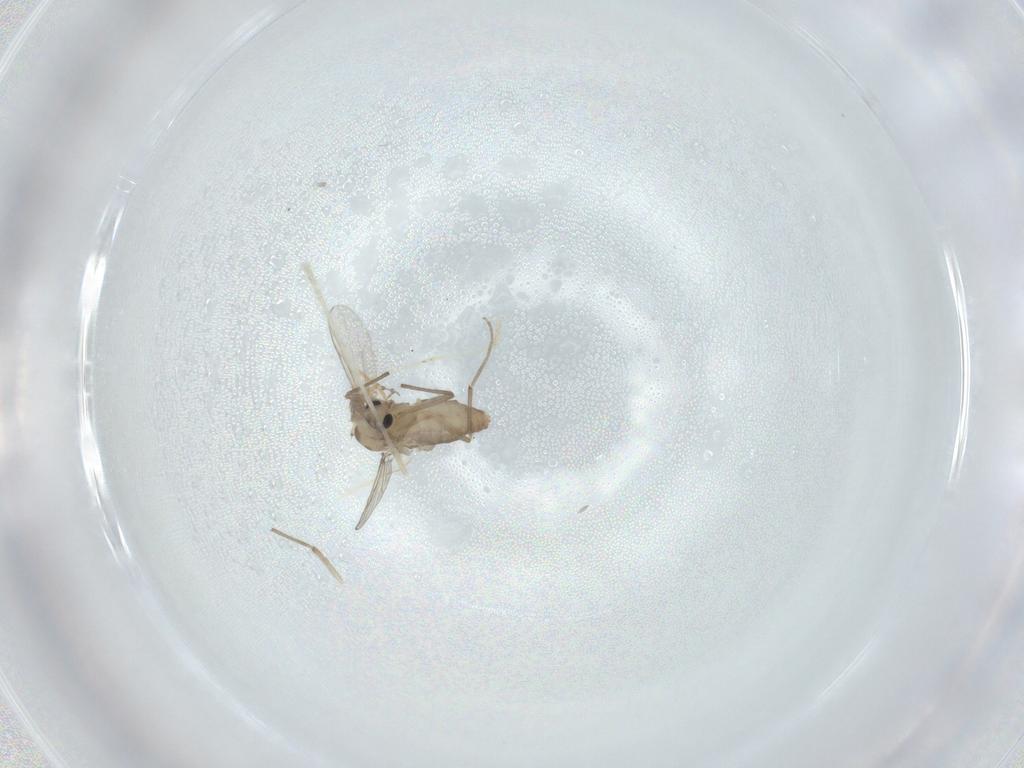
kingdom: Animalia
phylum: Arthropoda
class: Insecta
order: Diptera
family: Chironomidae
